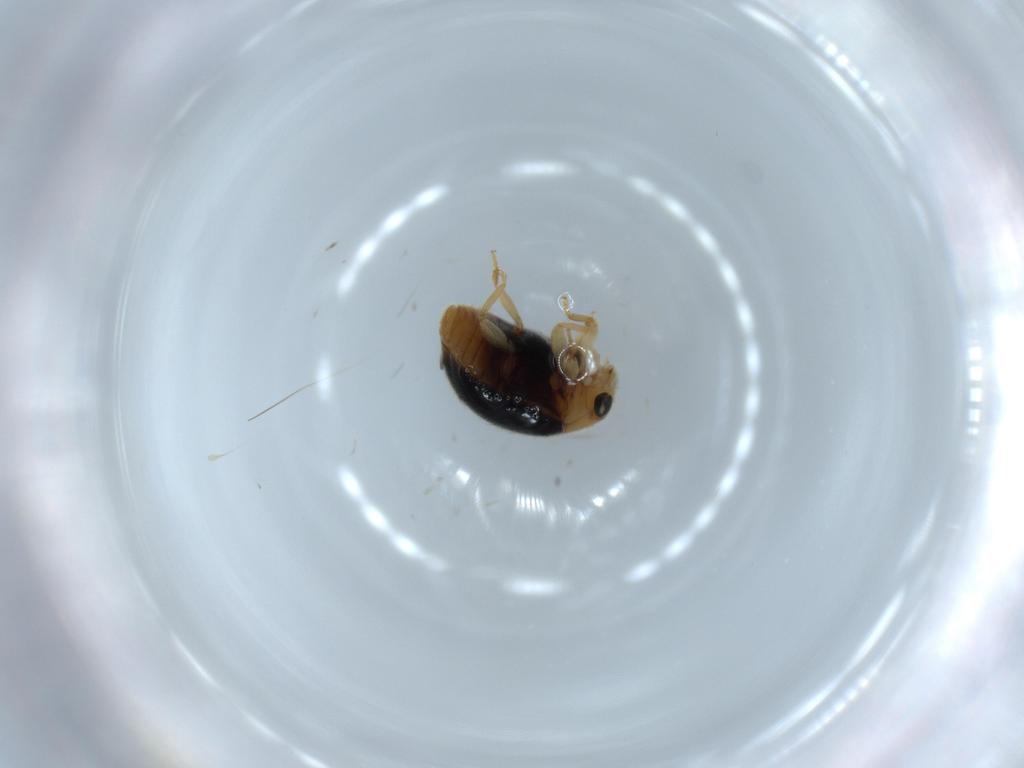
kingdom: Animalia
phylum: Arthropoda
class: Insecta
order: Coleoptera
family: Coccinellidae
